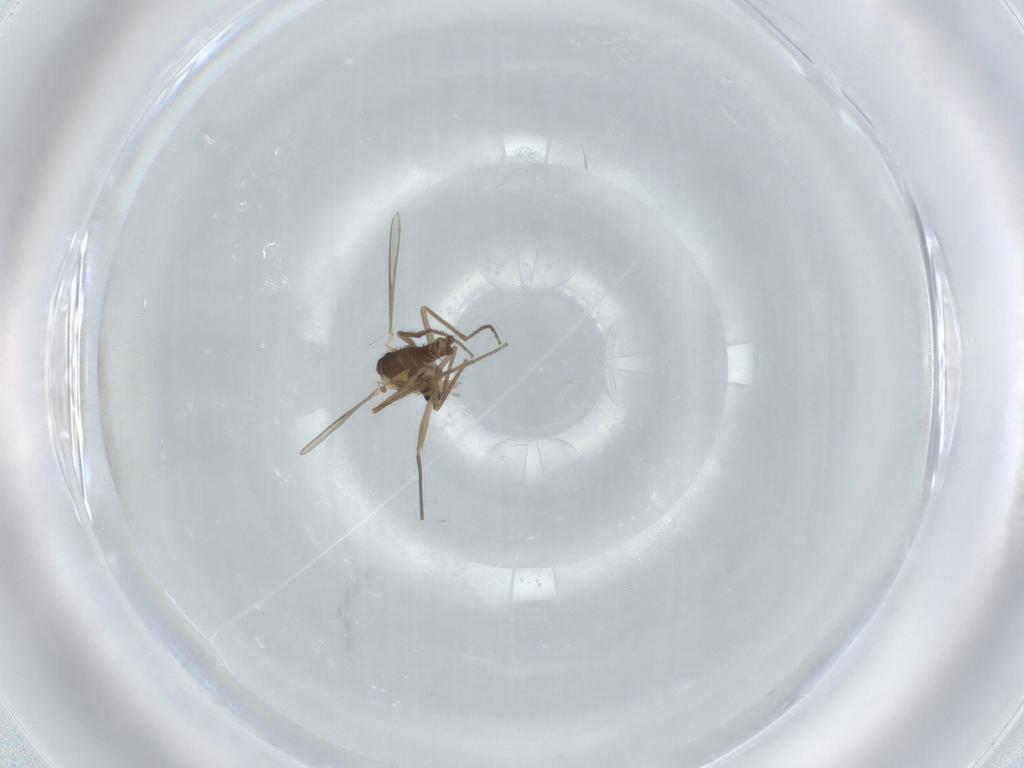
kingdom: Animalia
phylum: Arthropoda
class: Insecta
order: Diptera
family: Chironomidae
